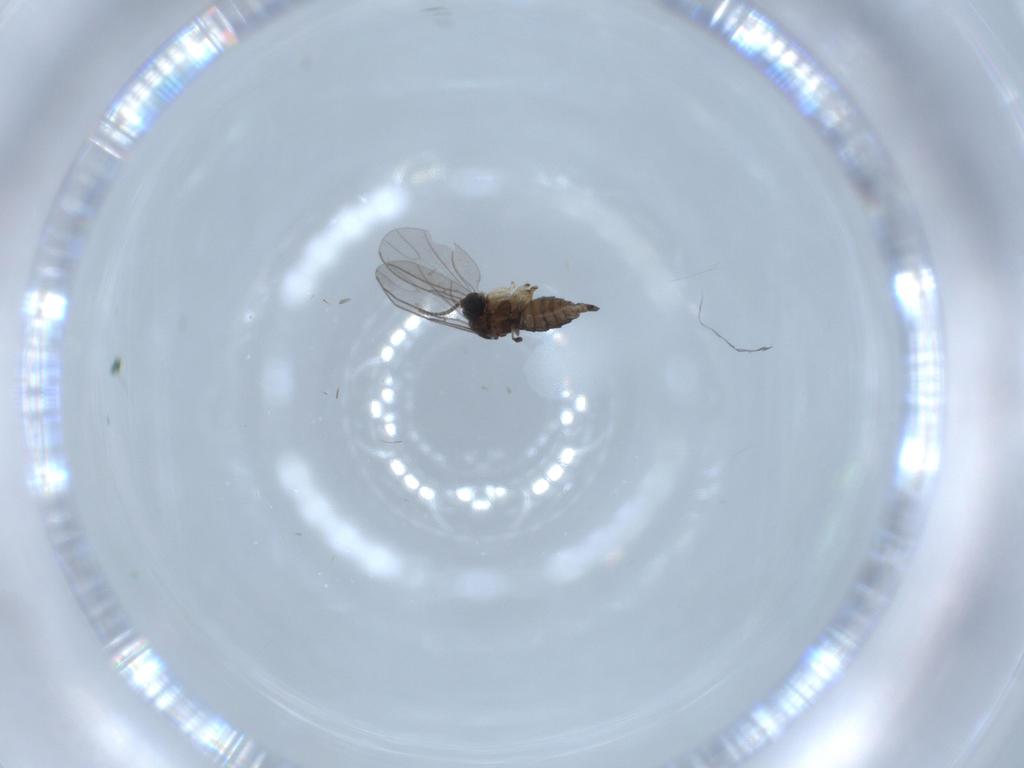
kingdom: Animalia
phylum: Arthropoda
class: Insecta
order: Diptera
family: Sciaridae
